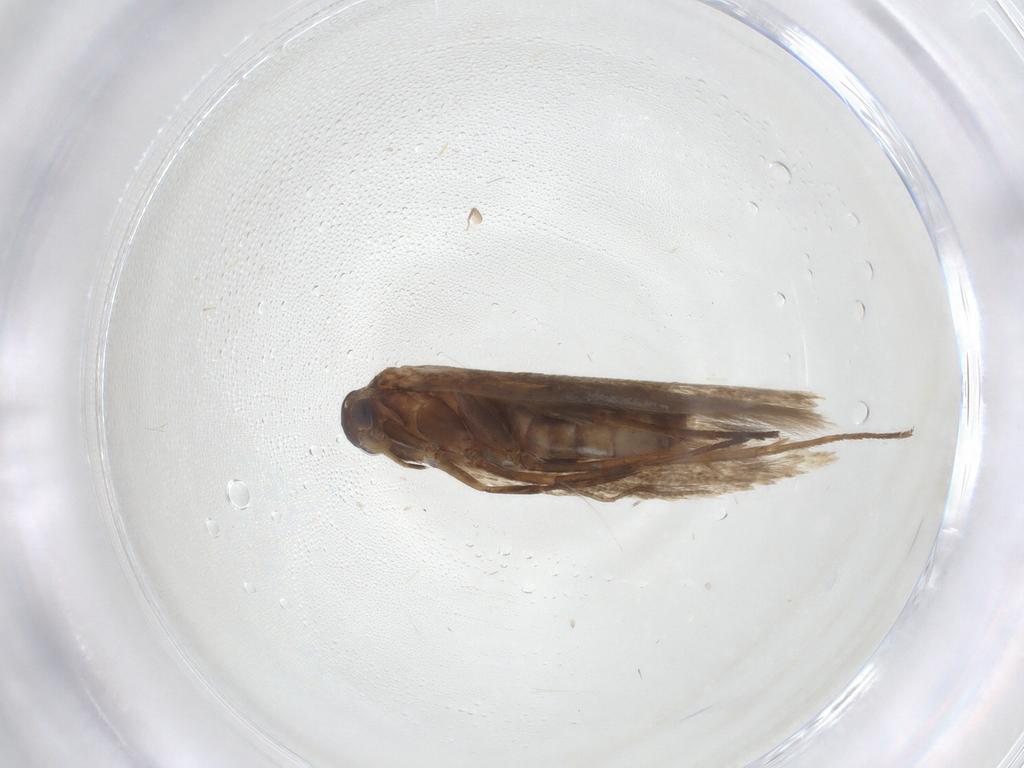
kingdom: Animalia
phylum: Arthropoda
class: Insecta
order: Lepidoptera
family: Cosmopterigidae
